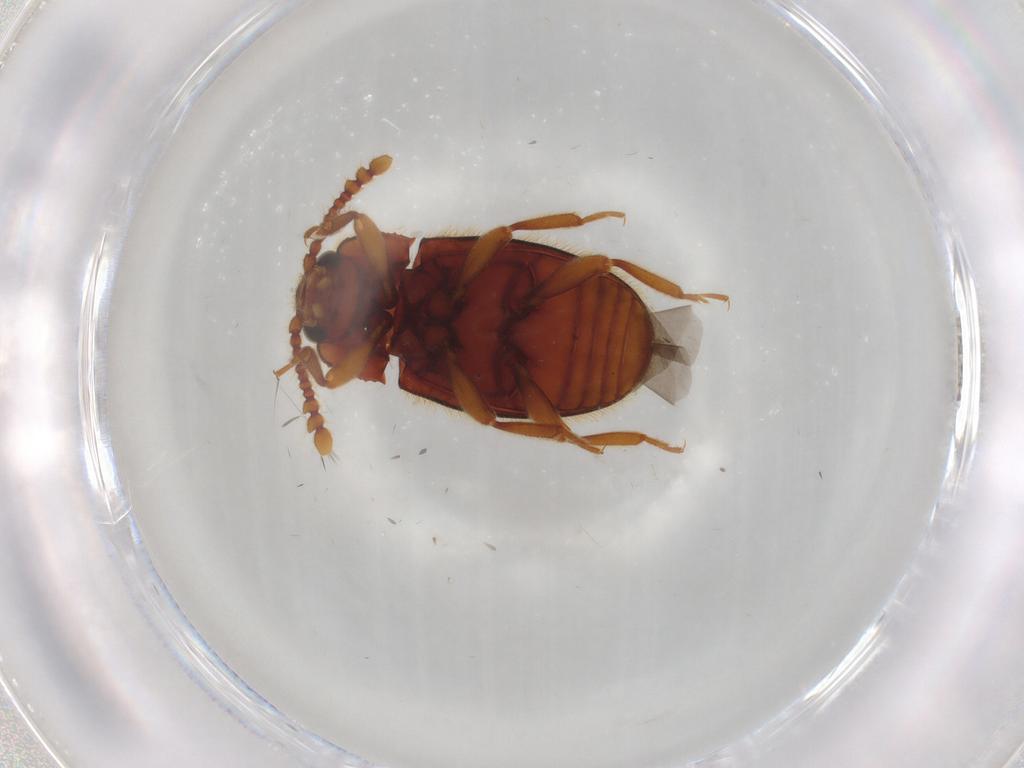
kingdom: Animalia
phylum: Arthropoda
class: Insecta
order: Coleoptera
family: Endomychidae
